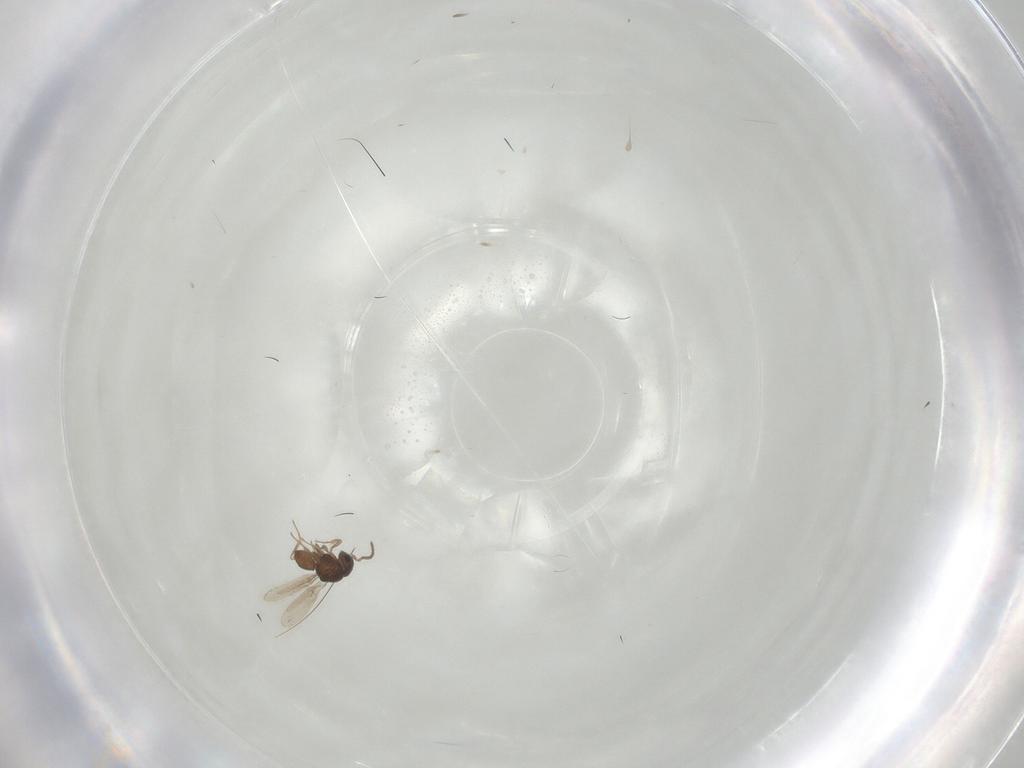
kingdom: Animalia
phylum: Arthropoda
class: Insecta
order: Hymenoptera
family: Scelionidae
